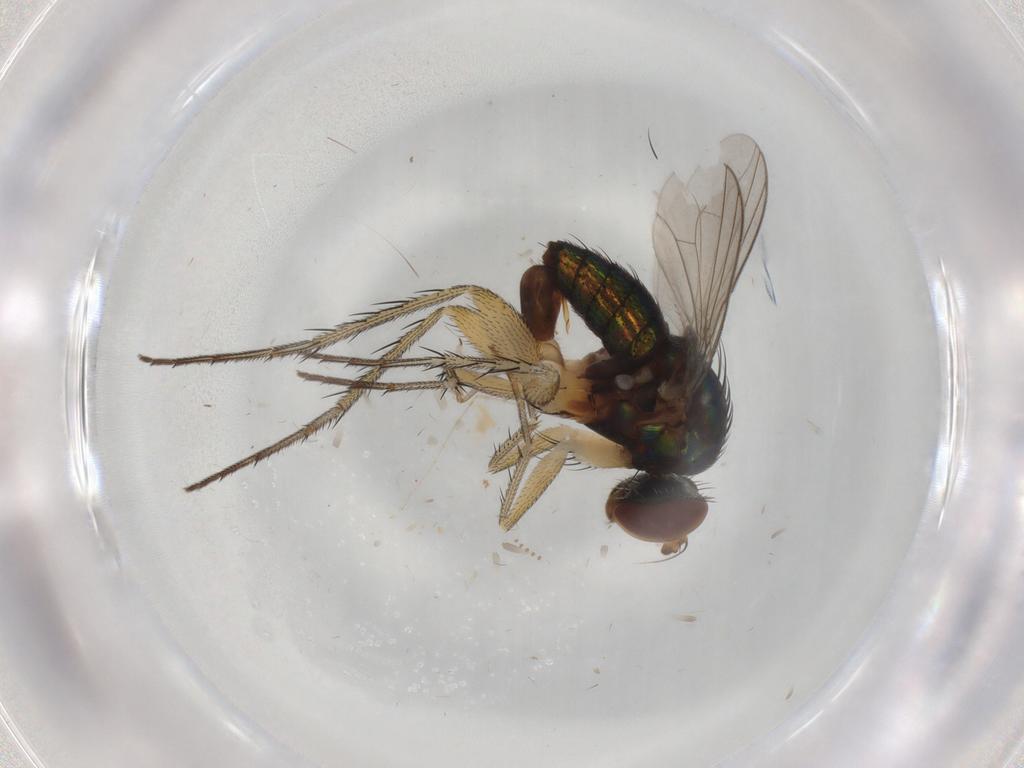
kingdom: Animalia
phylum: Arthropoda
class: Insecta
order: Diptera
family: Dolichopodidae
